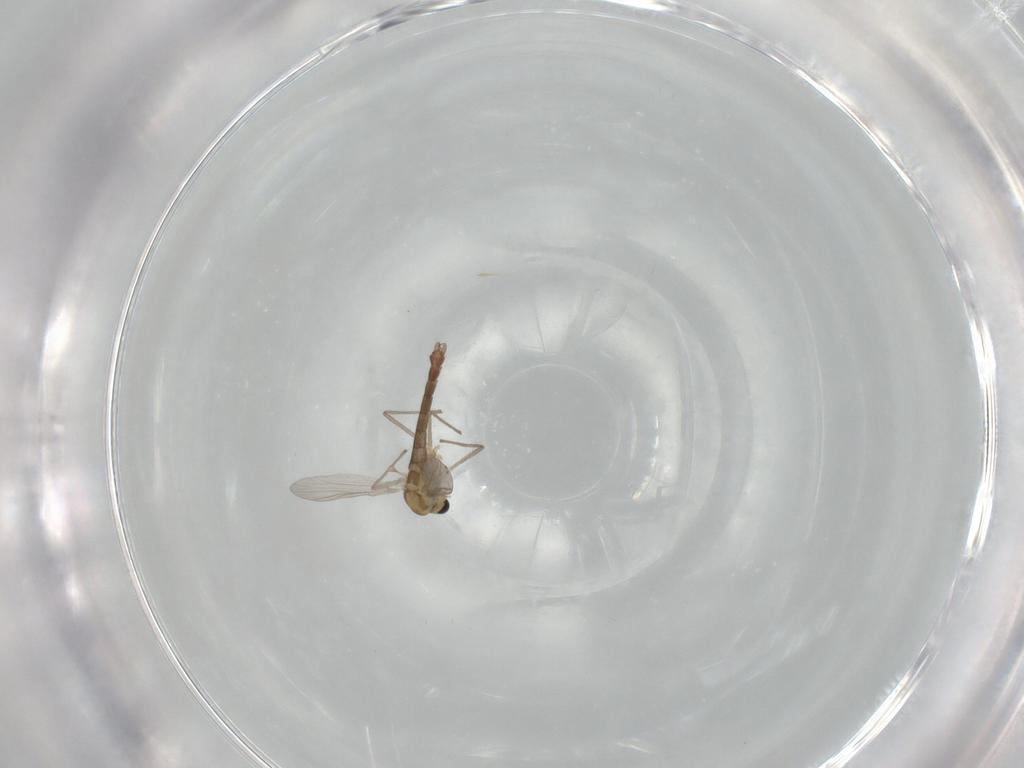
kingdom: Animalia
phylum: Arthropoda
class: Insecta
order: Diptera
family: Chironomidae
